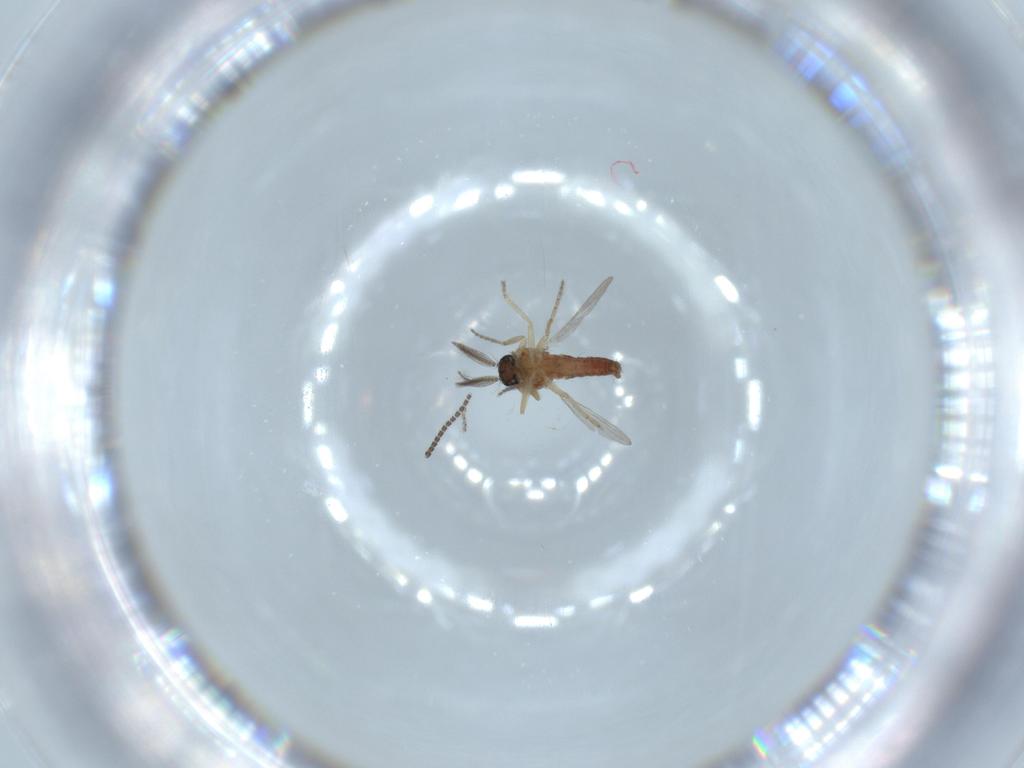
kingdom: Animalia
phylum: Arthropoda
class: Insecta
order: Diptera
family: Ceratopogonidae
